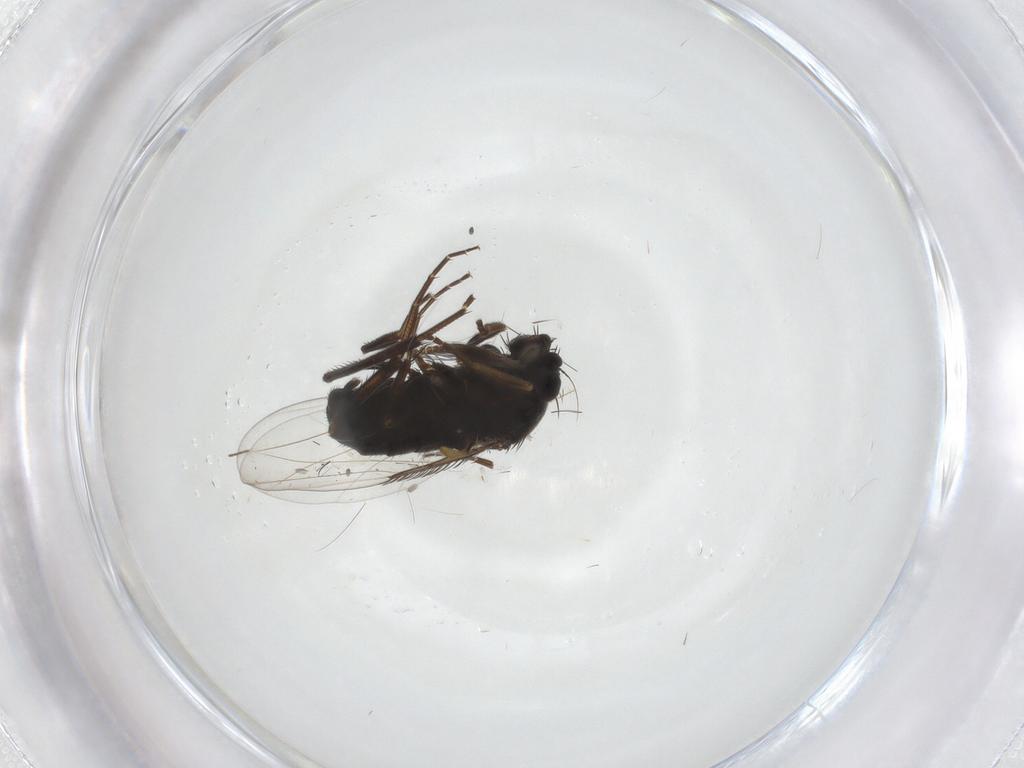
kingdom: Animalia
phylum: Arthropoda
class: Insecta
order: Diptera
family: Phoridae
